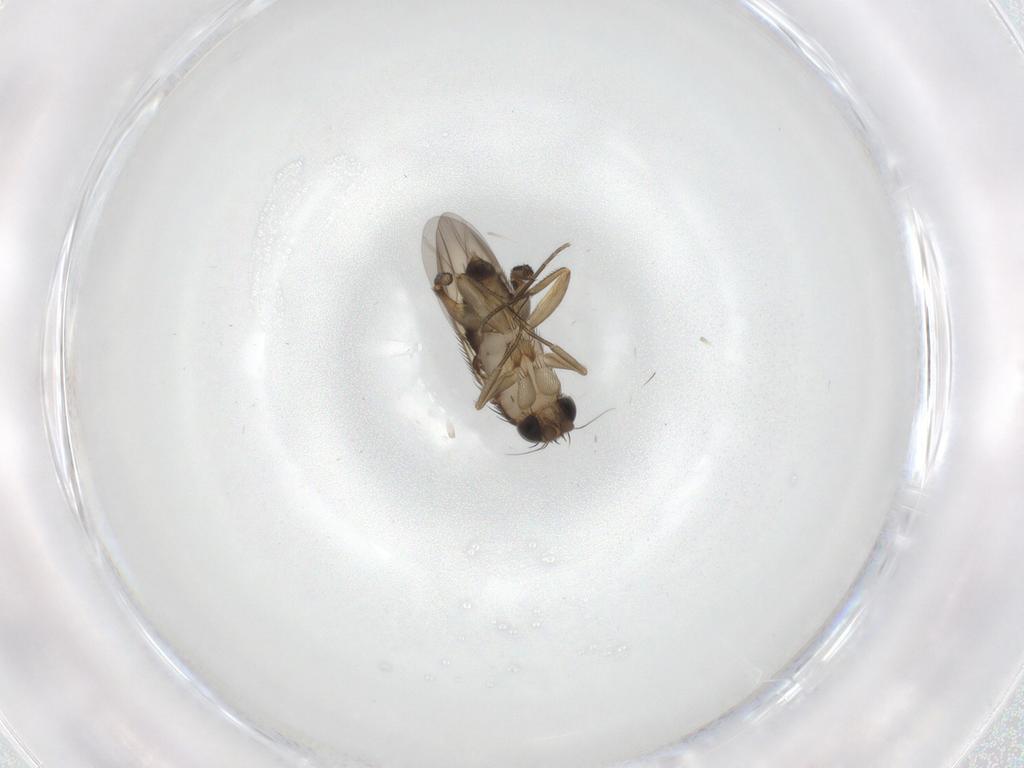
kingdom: Animalia
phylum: Arthropoda
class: Insecta
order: Diptera
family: Phoridae
